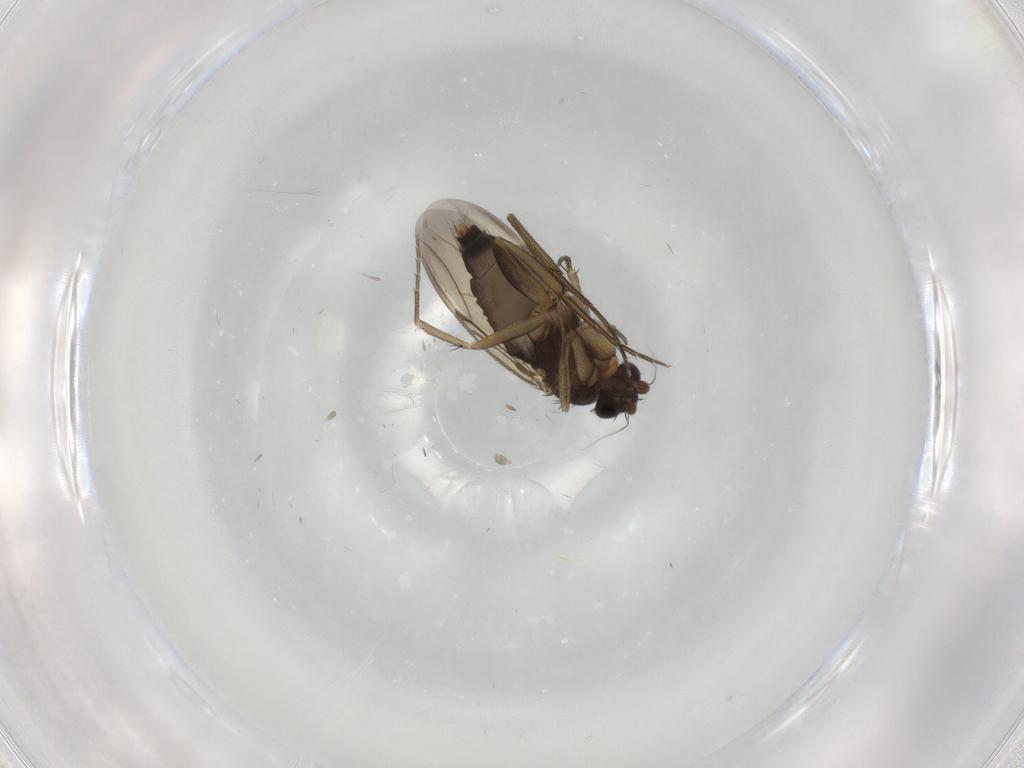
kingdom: Animalia
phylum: Arthropoda
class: Insecta
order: Diptera
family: Phoridae
